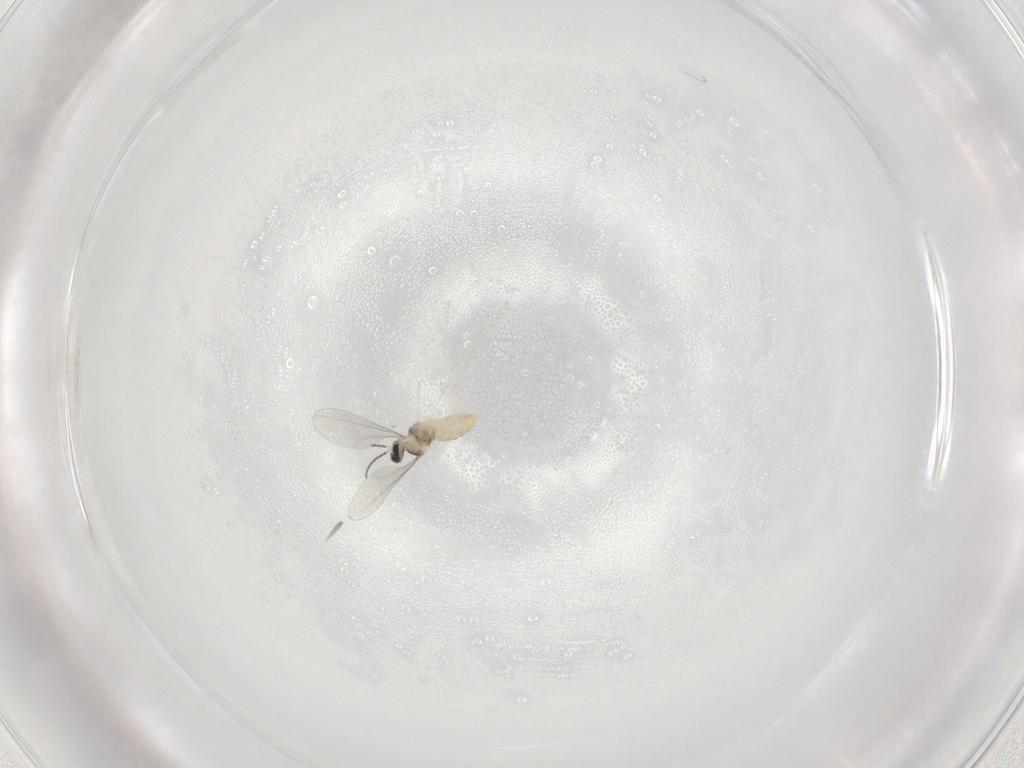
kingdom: Animalia
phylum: Arthropoda
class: Insecta
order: Diptera
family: Cecidomyiidae
